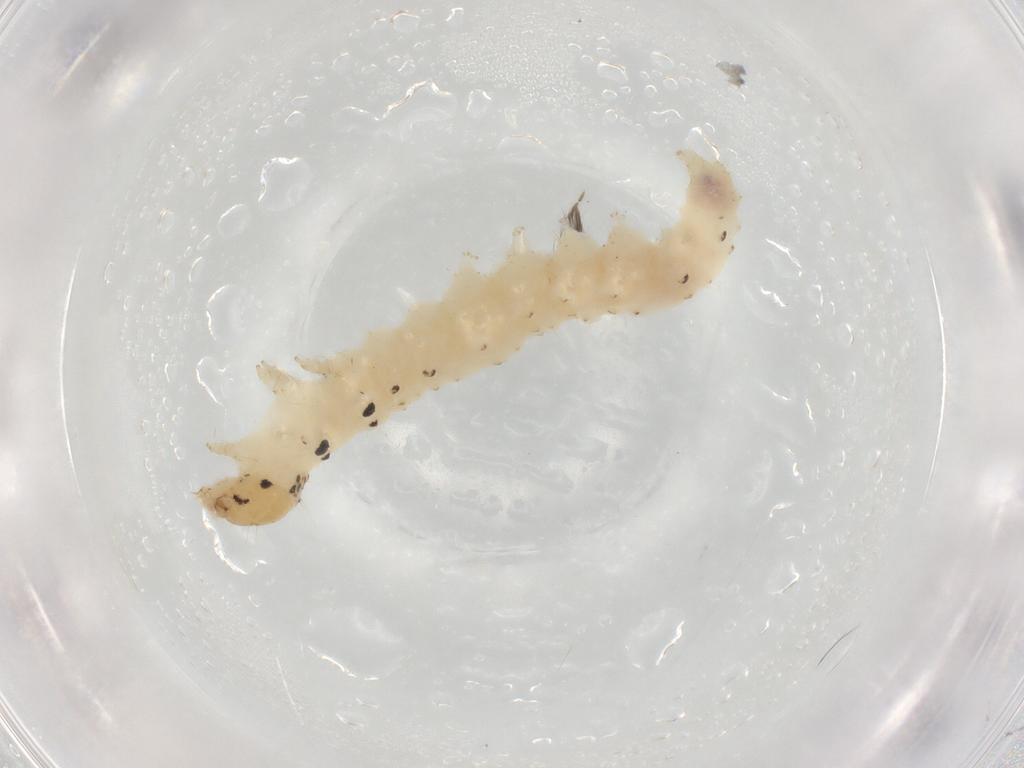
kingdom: Animalia
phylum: Arthropoda
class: Insecta
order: Lepidoptera
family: Crambidae
